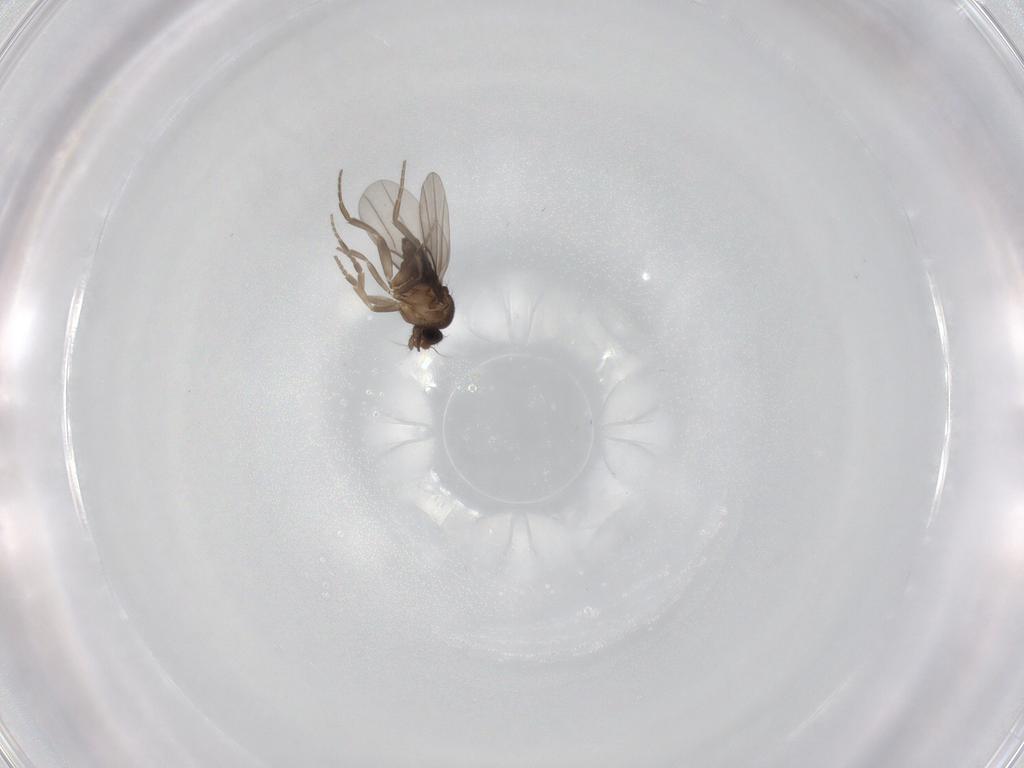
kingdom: Animalia
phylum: Arthropoda
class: Insecta
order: Diptera
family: Phoridae
